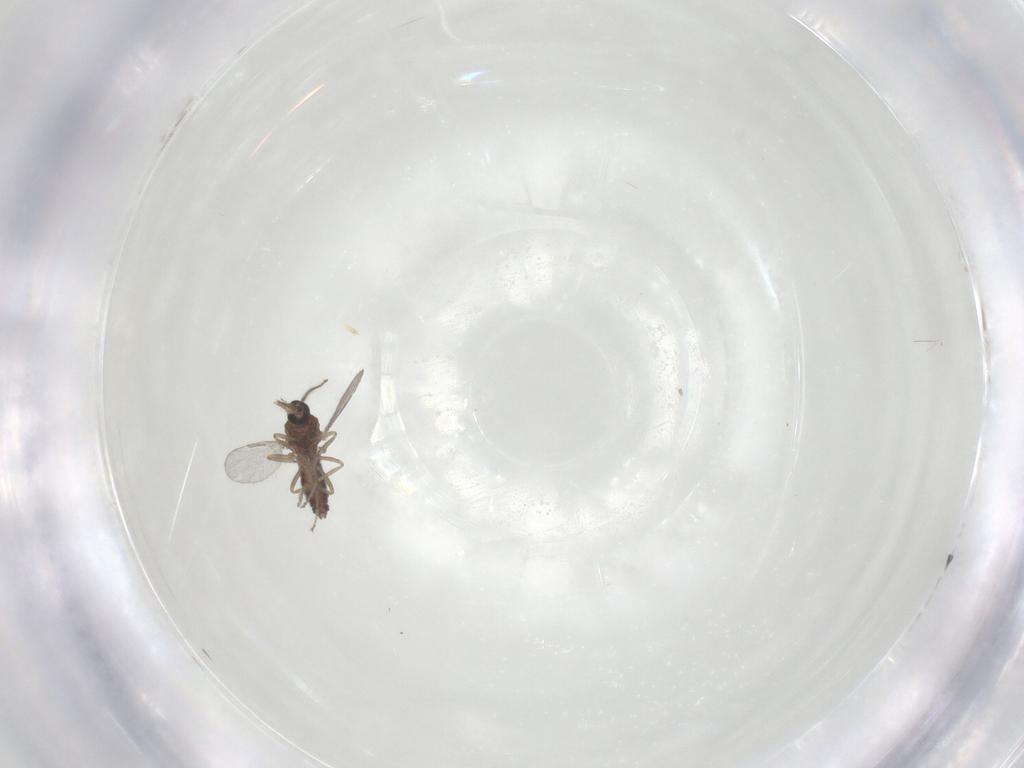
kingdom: Animalia
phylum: Arthropoda
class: Insecta
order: Diptera
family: Ceratopogonidae
